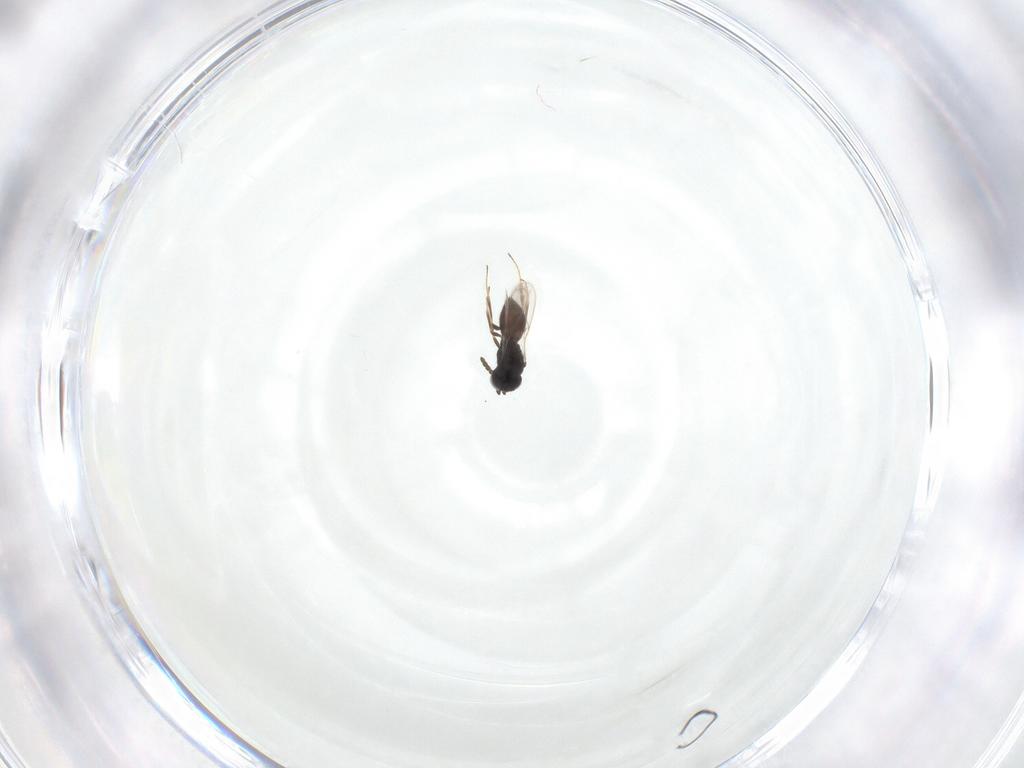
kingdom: Animalia
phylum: Arthropoda
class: Insecta
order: Hymenoptera
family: Scelionidae
